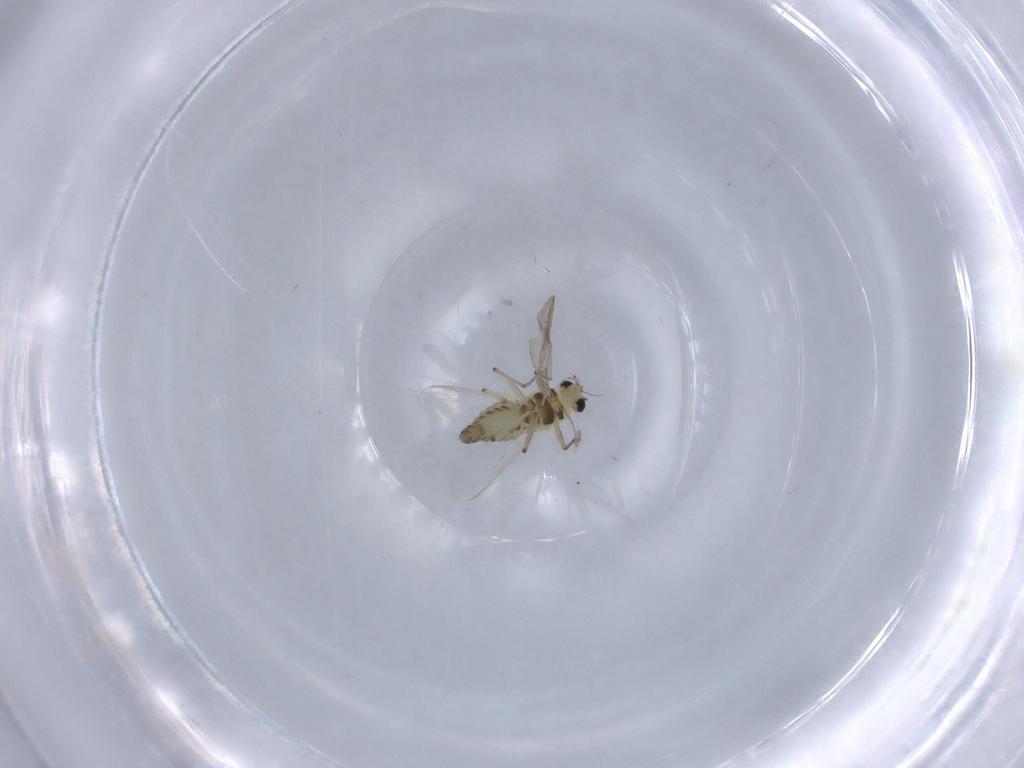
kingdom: Animalia
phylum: Arthropoda
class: Insecta
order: Diptera
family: Chironomidae
